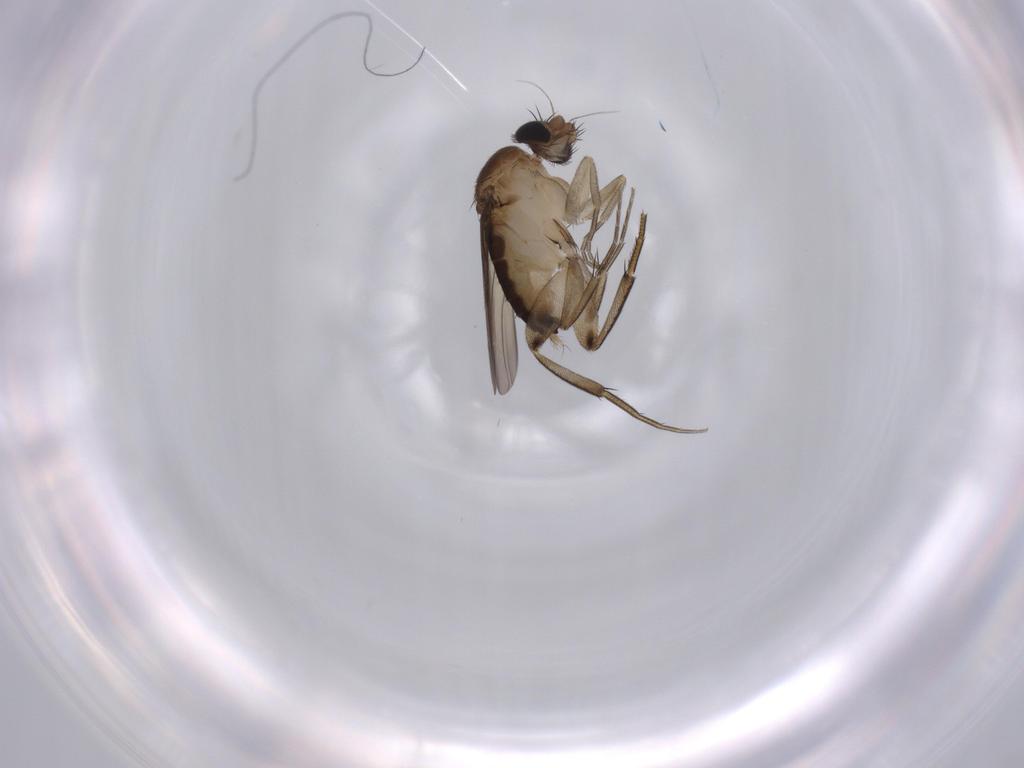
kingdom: Animalia
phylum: Arthropoda
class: Insecta
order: Diptera
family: Phoridae
